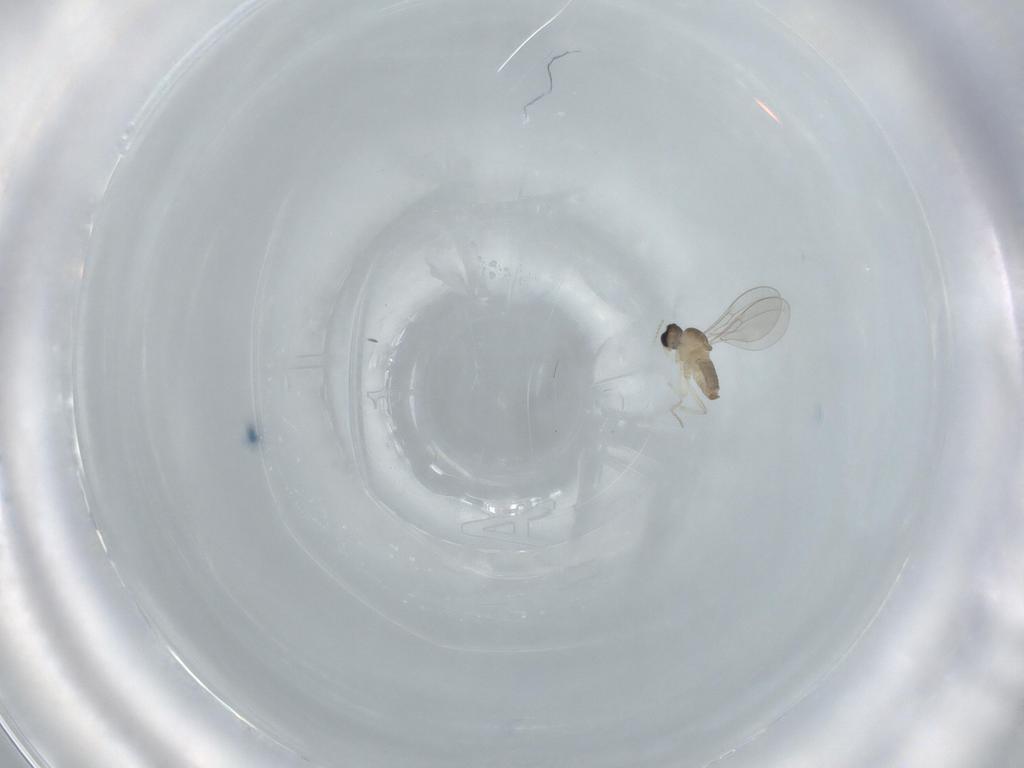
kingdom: Animalia
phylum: Arthropoda
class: Insecta
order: Diptera
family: Cecidomyiidae
